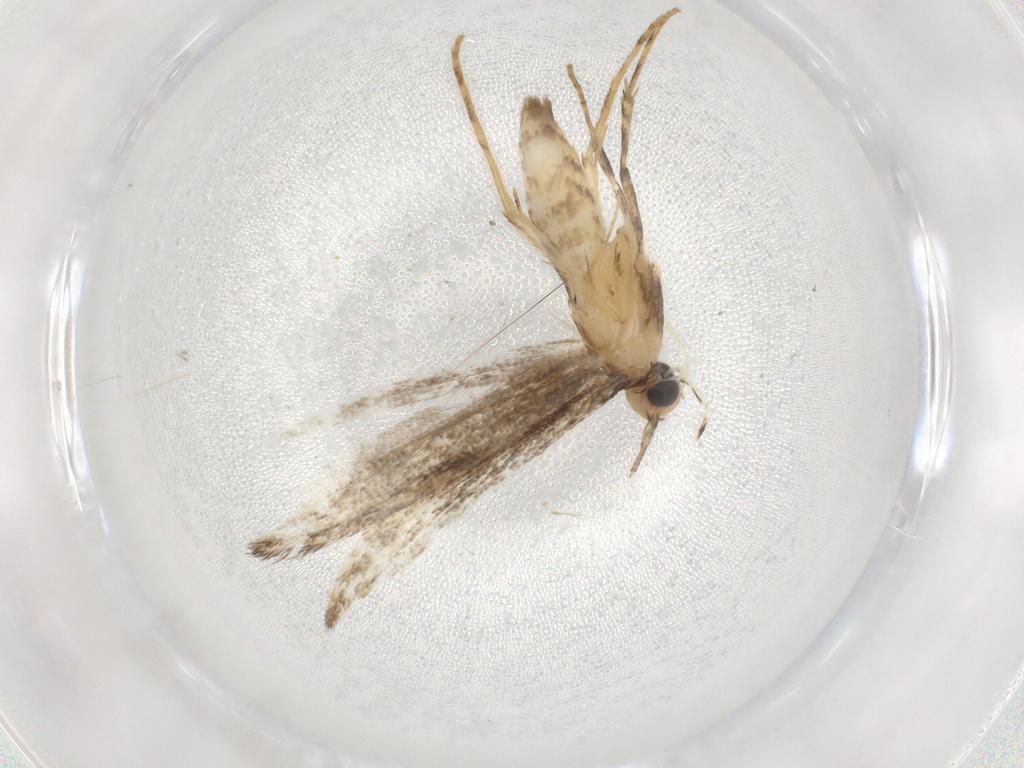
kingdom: Animalia
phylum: Arthropoda
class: Insecta
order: Lepidoptera
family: Gracillariidae
